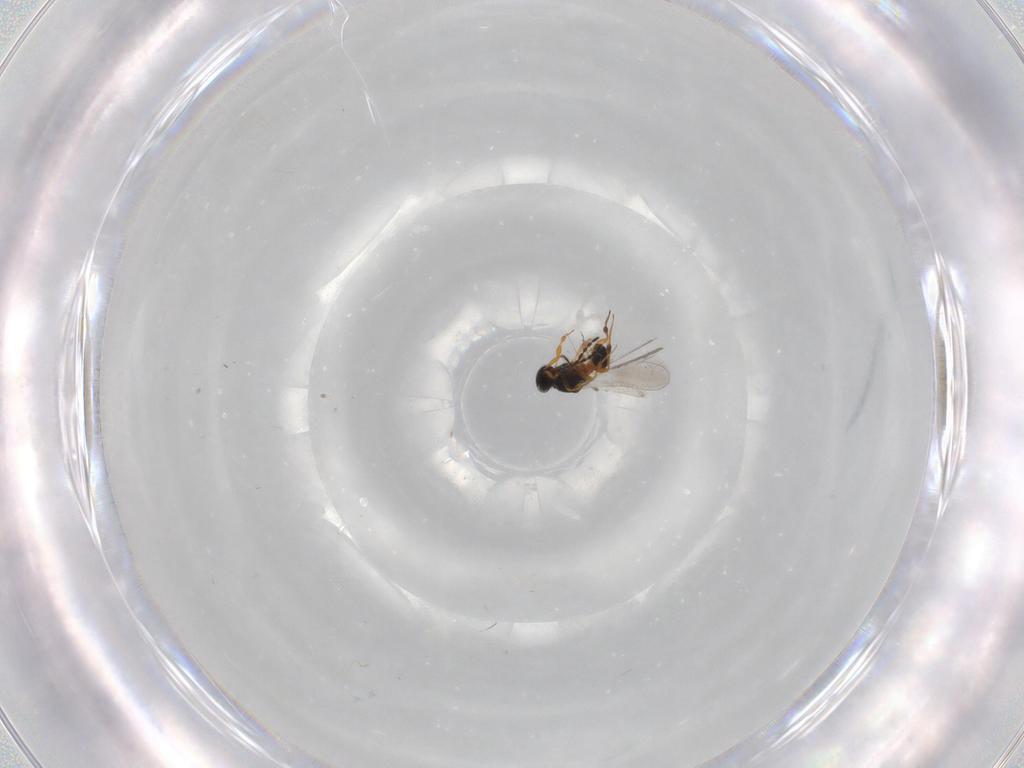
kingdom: Animalia
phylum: Arthropoda
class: Insecta
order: Hymenoptera
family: Platygastridae
